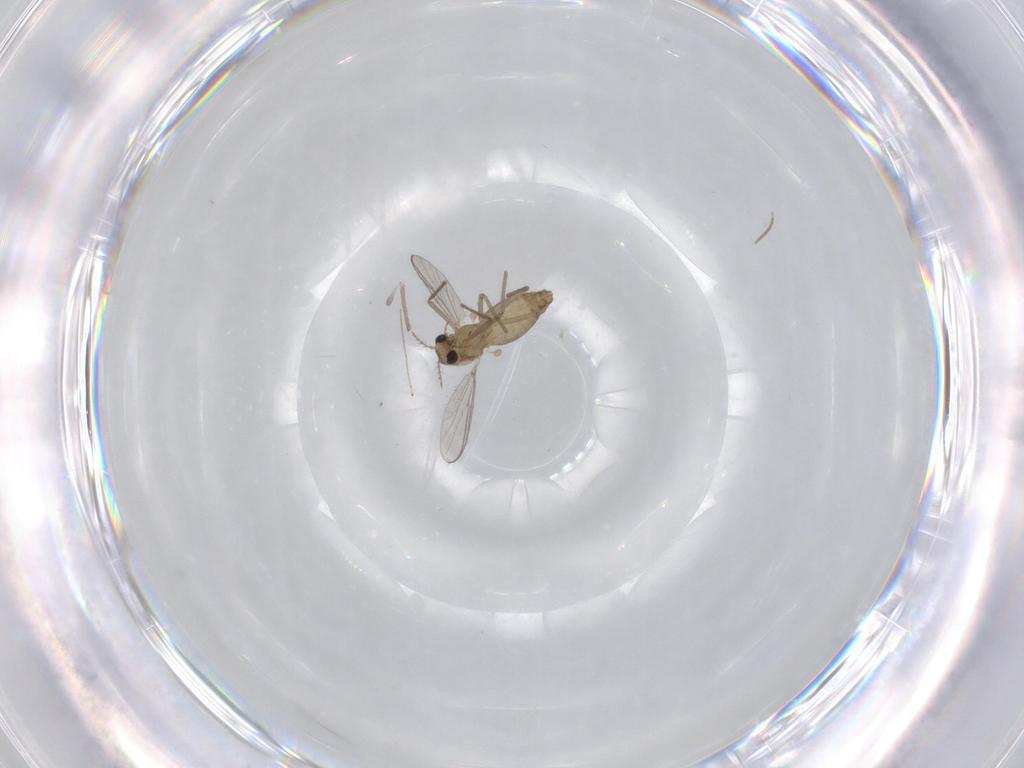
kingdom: Animalia
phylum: Arthropoda
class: Insecta
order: Diptera
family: Chironomidae
